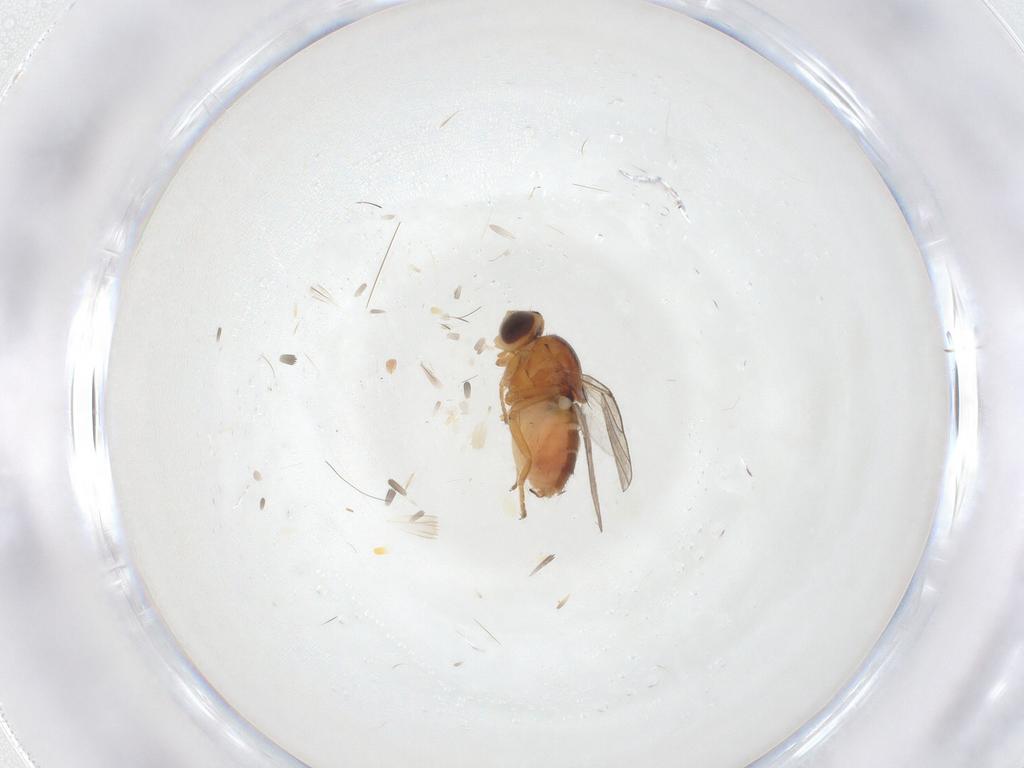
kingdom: Animalia
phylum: Arthropoda
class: Insecta
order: Diptera
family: Chloropidae
